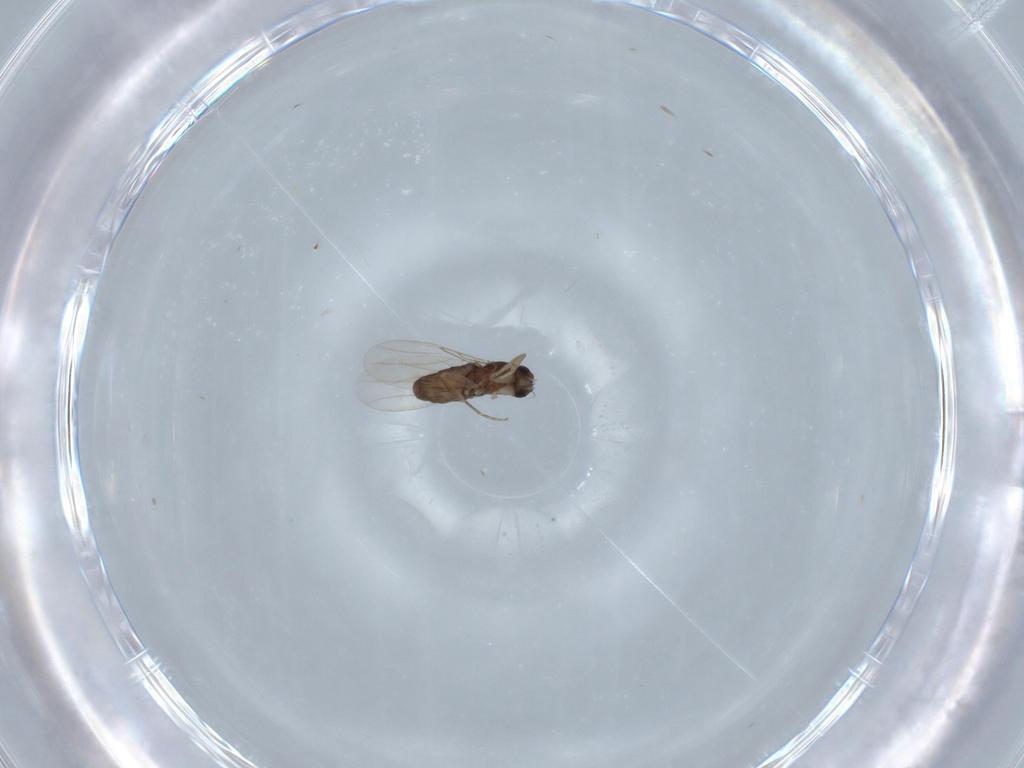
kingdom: Animalia
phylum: Arthropoda
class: Insecta
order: Diptera
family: Phoridae
